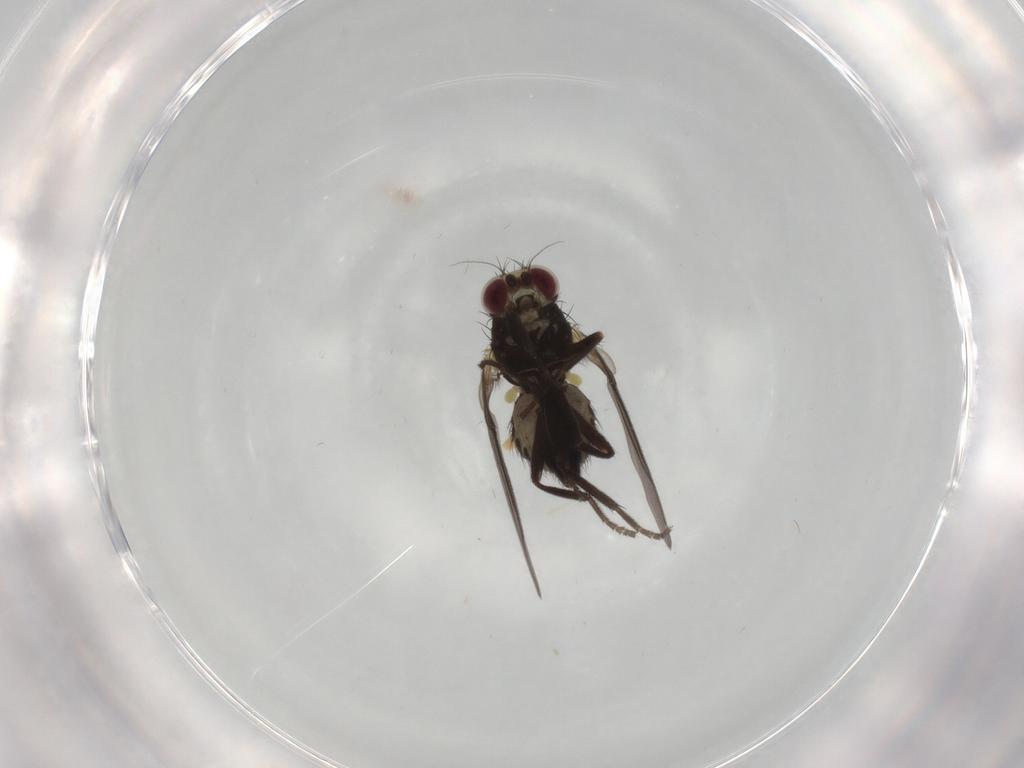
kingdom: Animalia
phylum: Arthropoda
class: Insecta
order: Diptera
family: Agromyzidae
